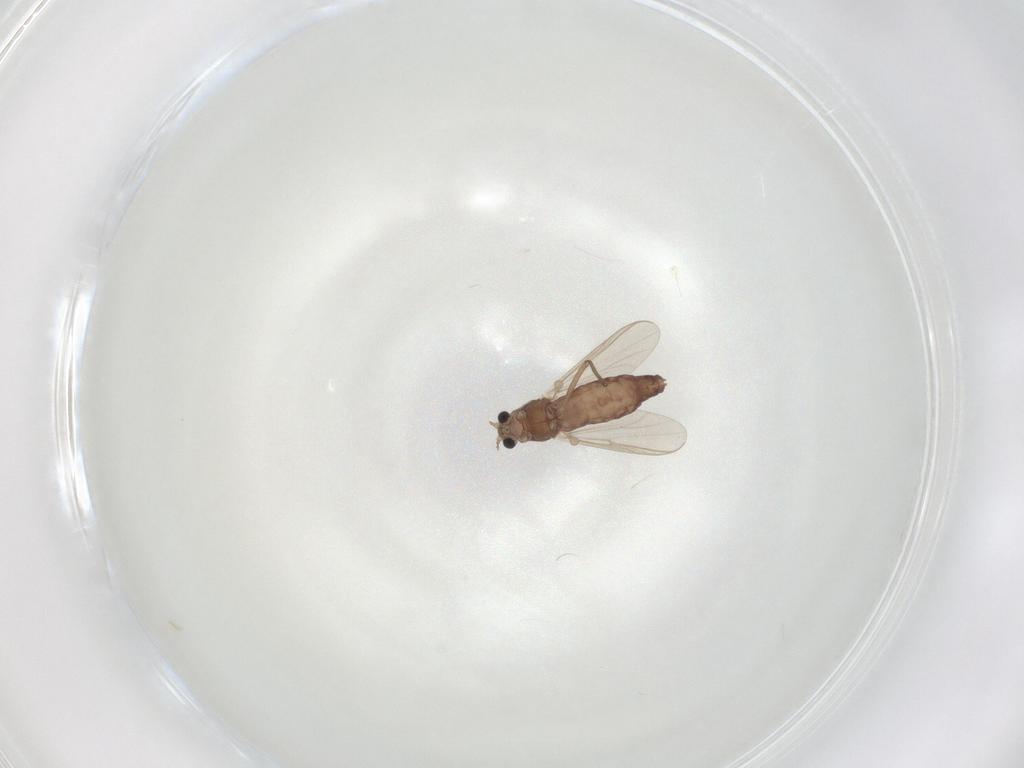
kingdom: Animalia
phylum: Arthropoda
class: Insecta
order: Diptera
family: Chironomidae
